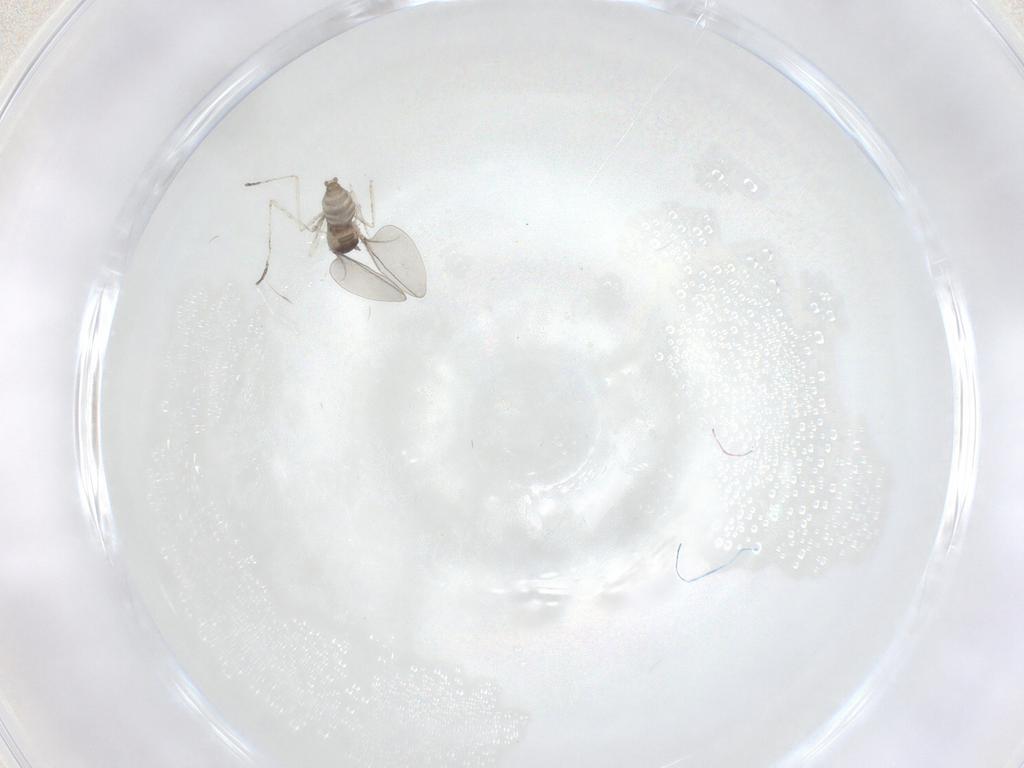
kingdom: Animalia
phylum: Arthropoda
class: Insecta
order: Diptera
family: Cecidomyiidae
